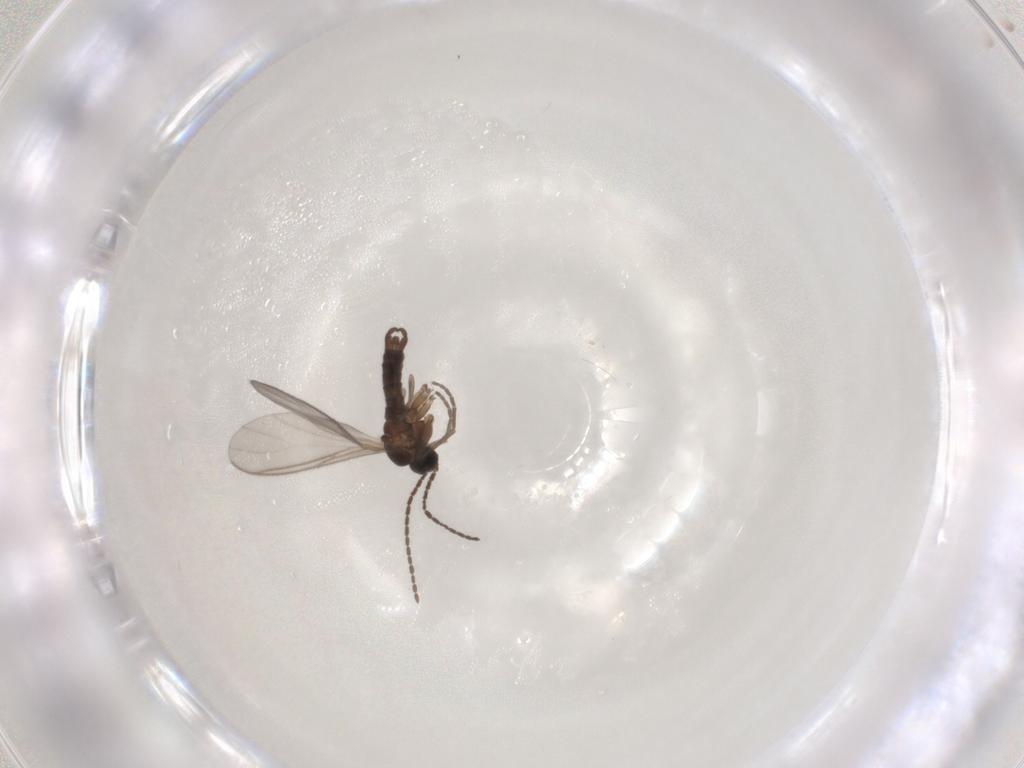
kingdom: Animalia
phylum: Arthropoda
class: Insecta
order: Diptera
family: Sciaridae
